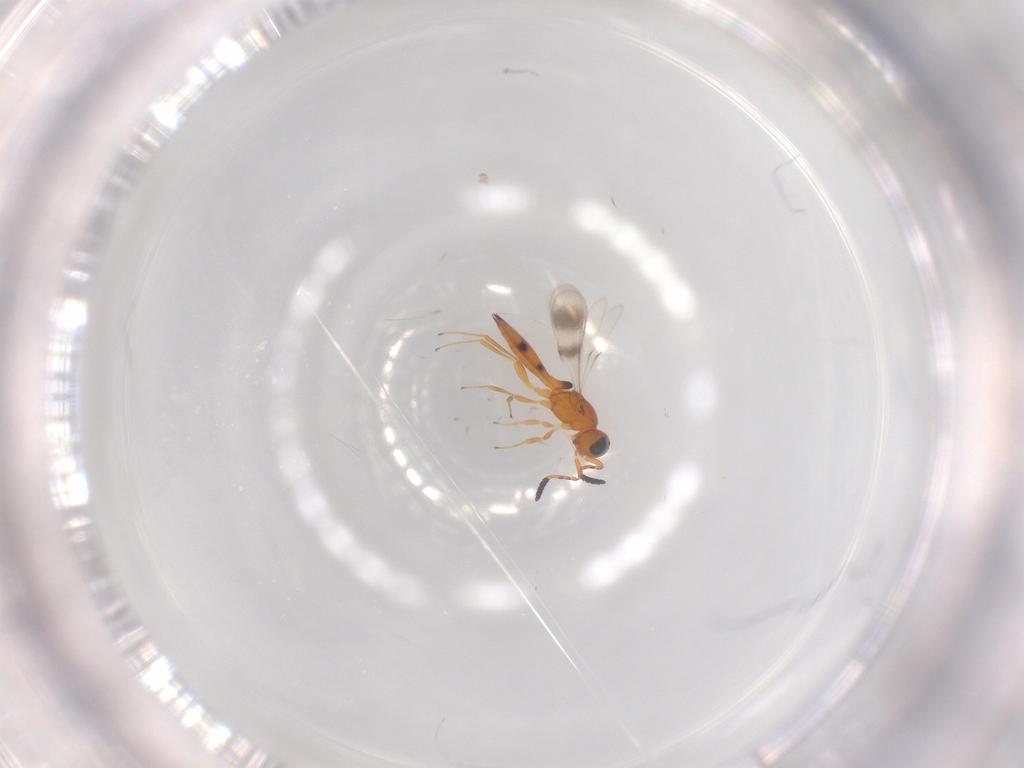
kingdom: Animalia
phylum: Arthropoda
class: Insecta
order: Hymenoptera
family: Scelionidae
